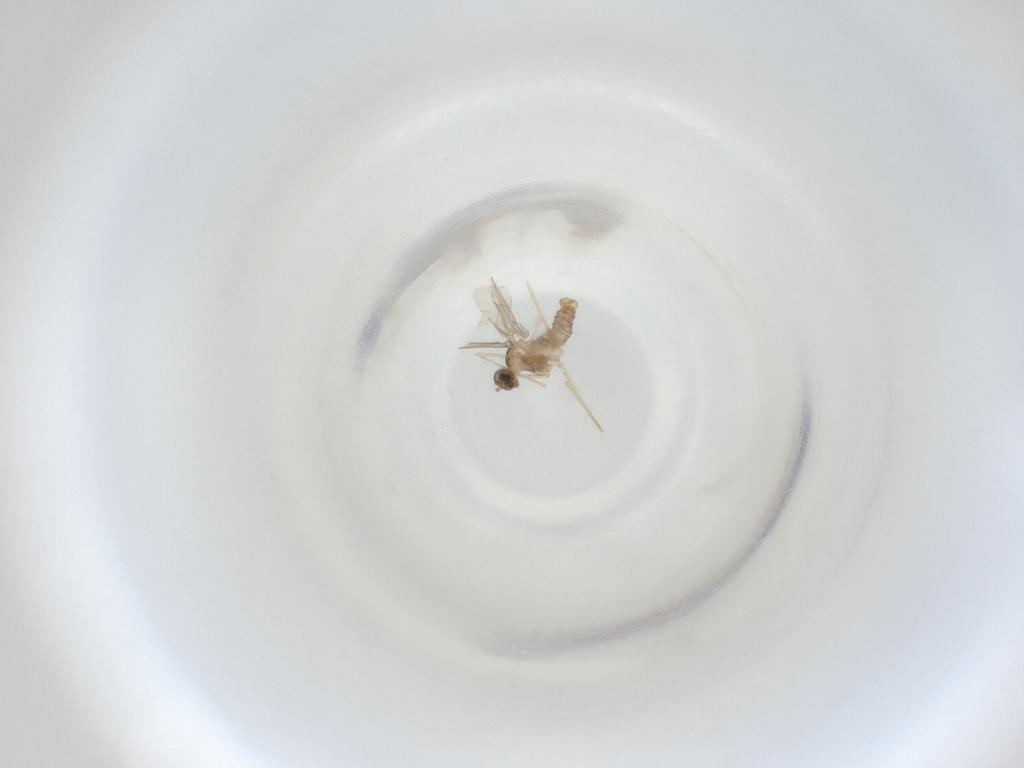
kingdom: Animalia
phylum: Arthropoda
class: Insecta
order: Diptera
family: Cecidomyiidae
